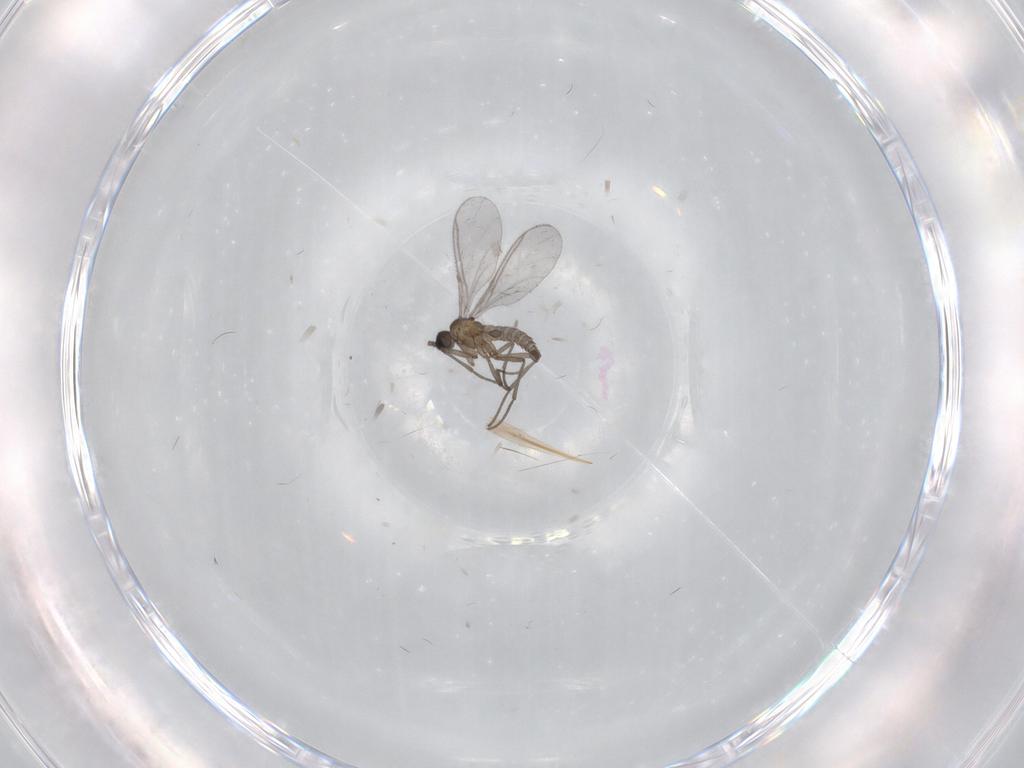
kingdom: Animalia
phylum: Arthropoda
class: Insecta
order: Diptera
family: Sciaridae
